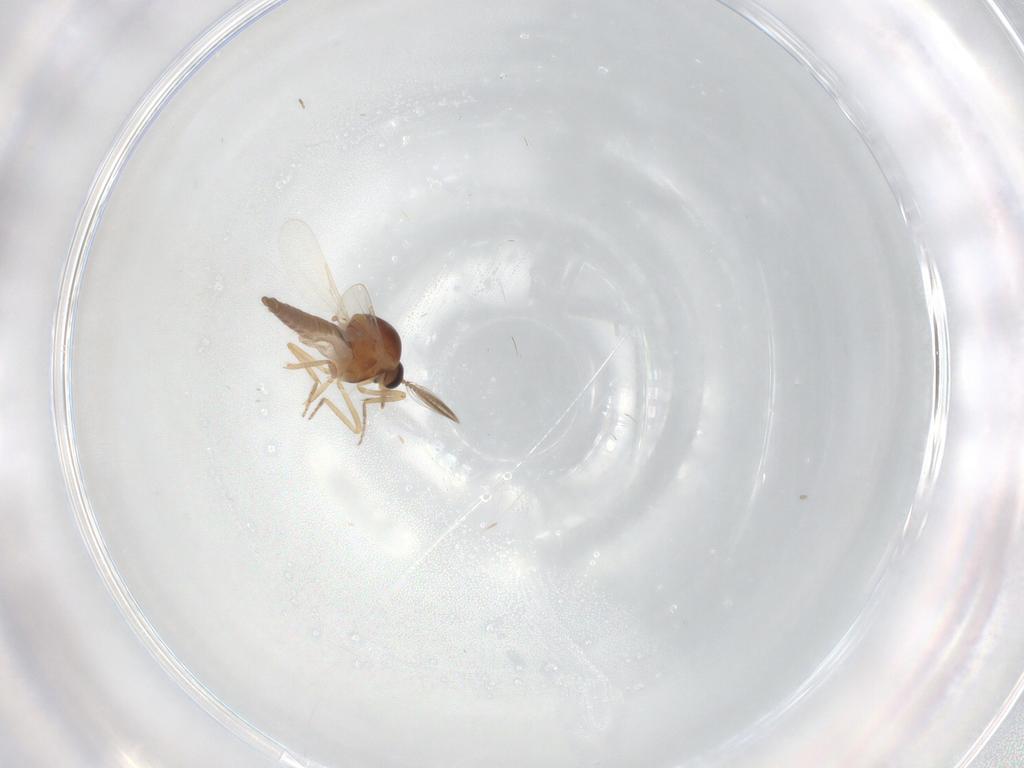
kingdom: Animalia
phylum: Arthropoda
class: Insecta
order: Diptera
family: Ceratopogonidae
